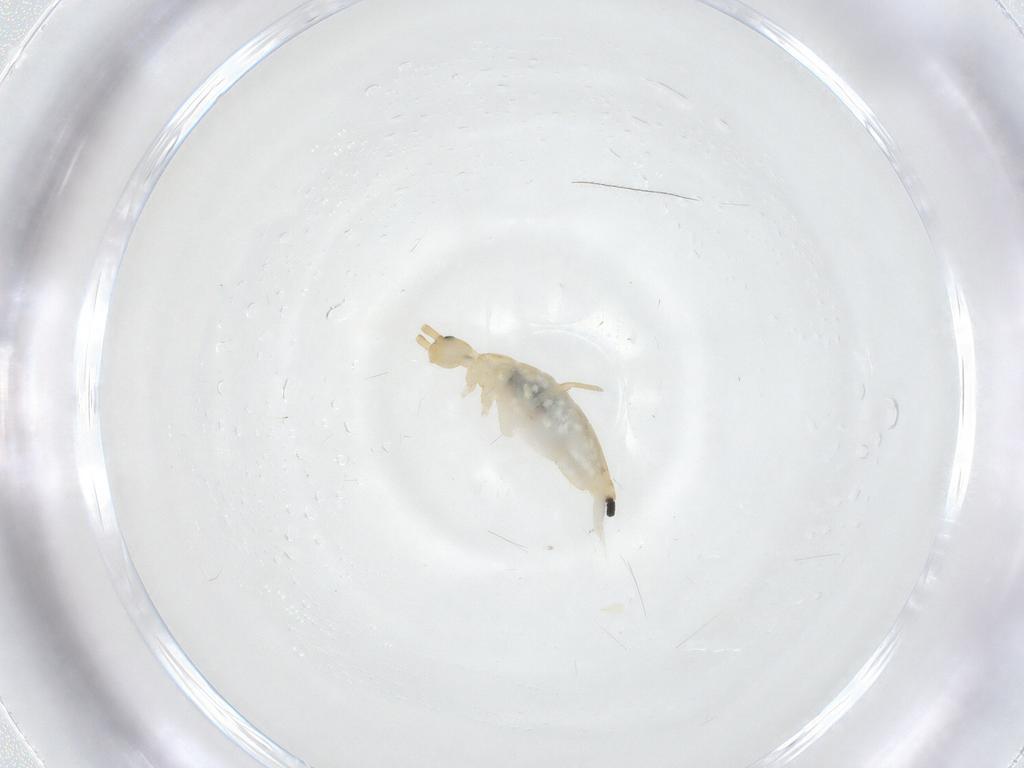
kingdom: Animalia
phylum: Arthropoda
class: Collembola
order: Entomobryomorpha
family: Entomobryidae
